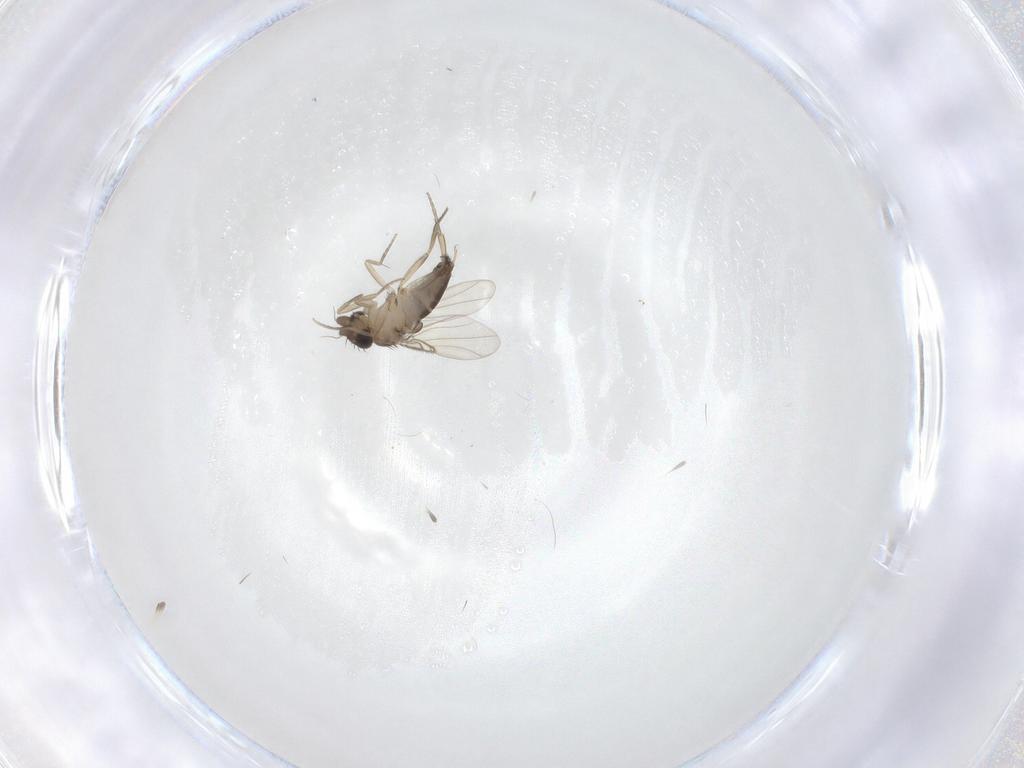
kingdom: Animalia
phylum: Arthropoda
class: Insecta
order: Diptera
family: Phoridae
